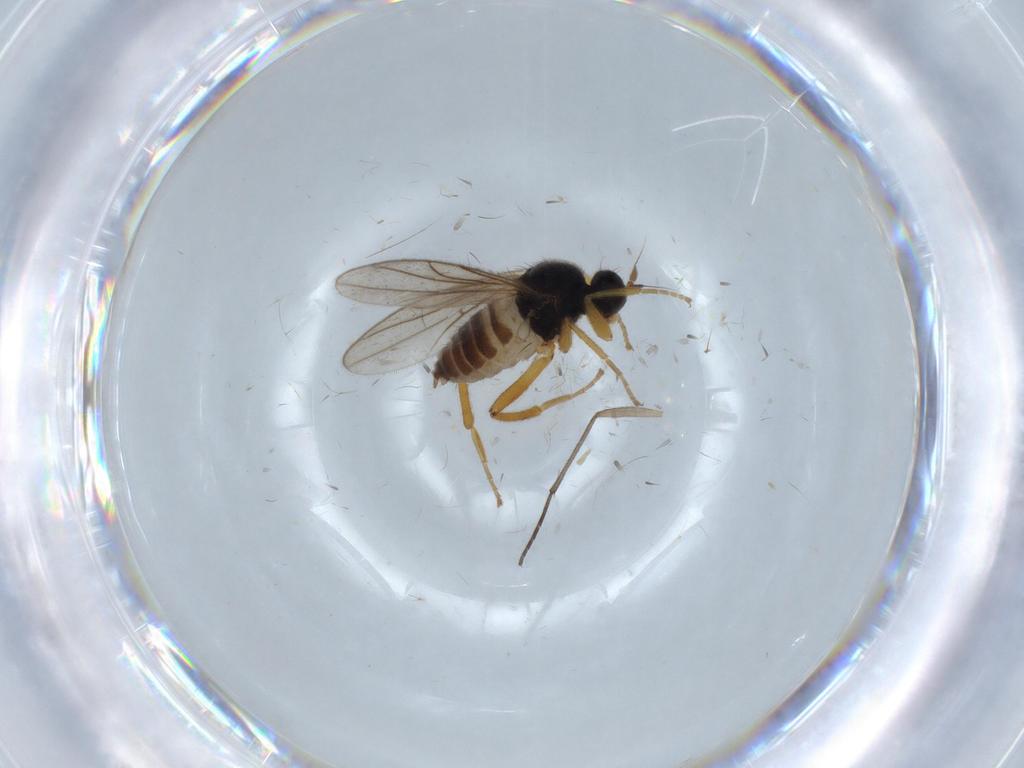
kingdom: Animalia
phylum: Arthropoda
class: Insecta
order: Diptera
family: Hybotidae
